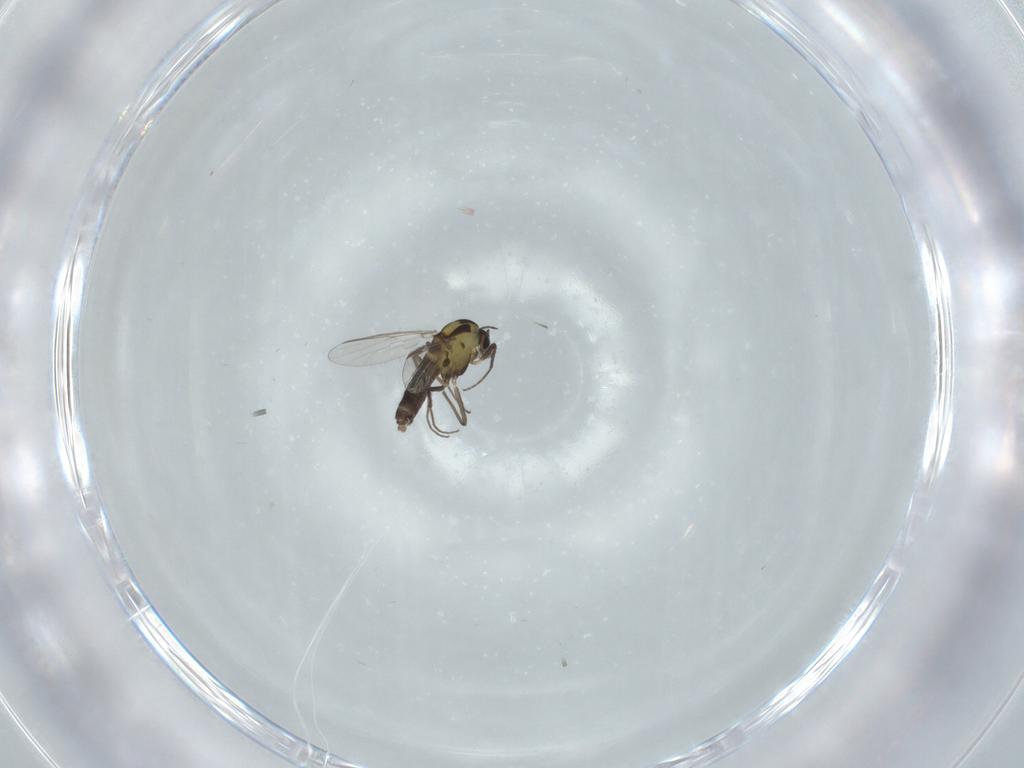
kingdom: Animalia
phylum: Arthropoda
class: Insecta
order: Diptera
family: Chironomidae
